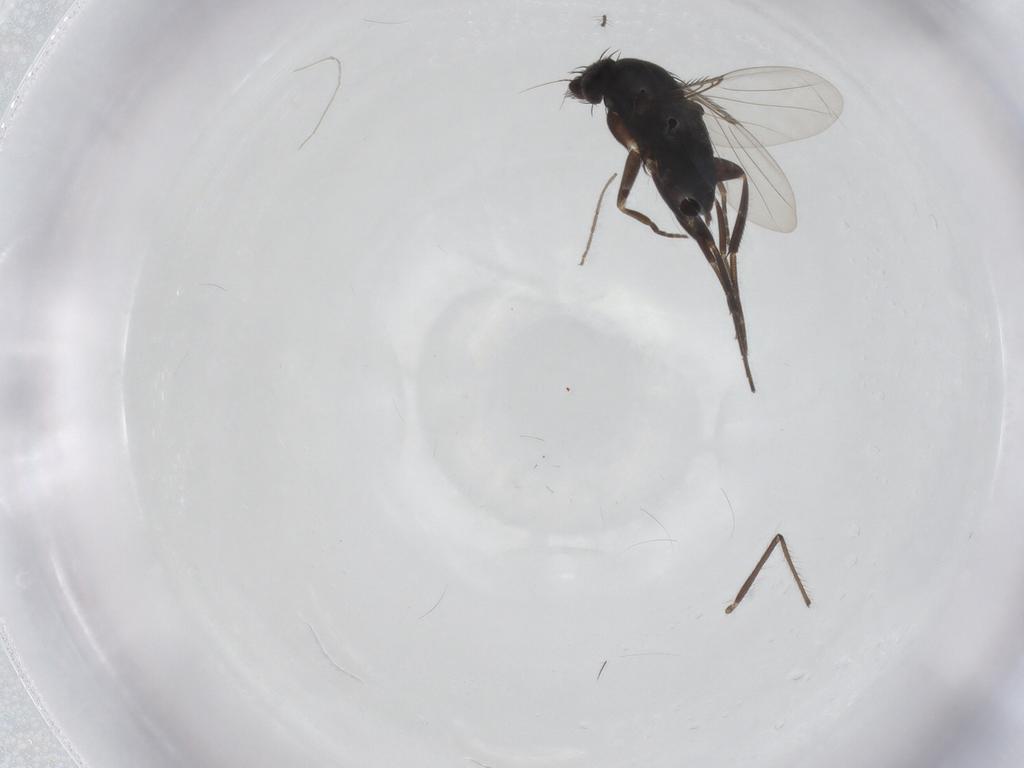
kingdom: Animalia
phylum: Arthropoda
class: Insecta
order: Diptera
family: Phoridae
